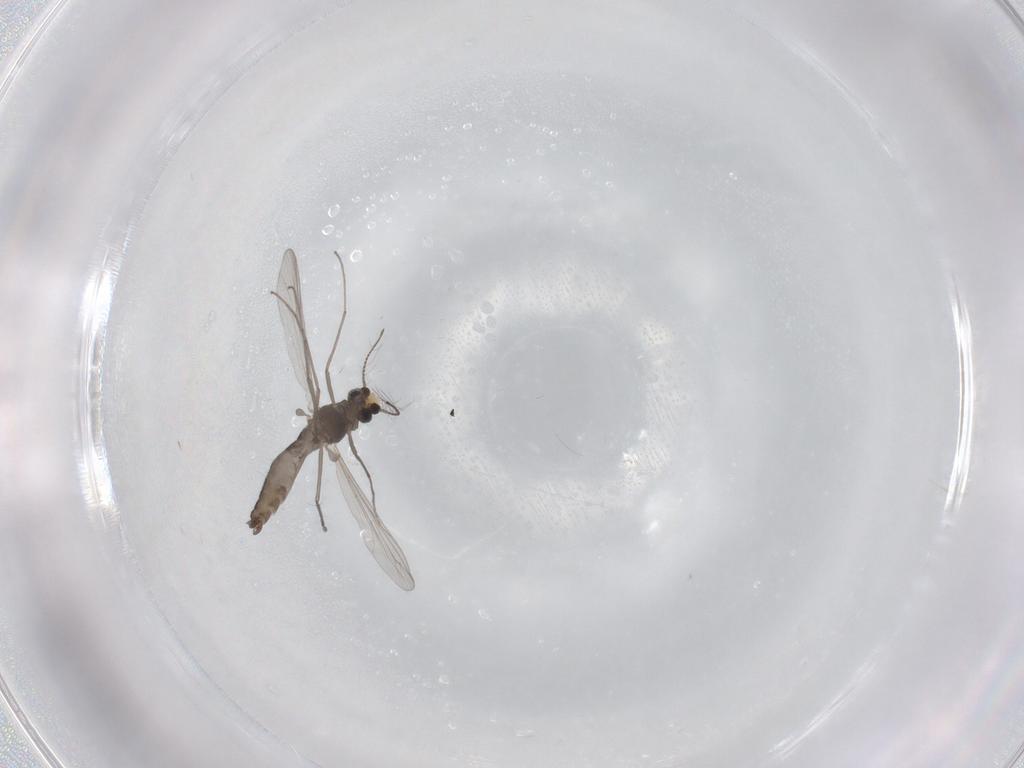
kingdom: Animalia
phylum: Arthropoda
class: Insecta
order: Diptera
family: Chironomidae
